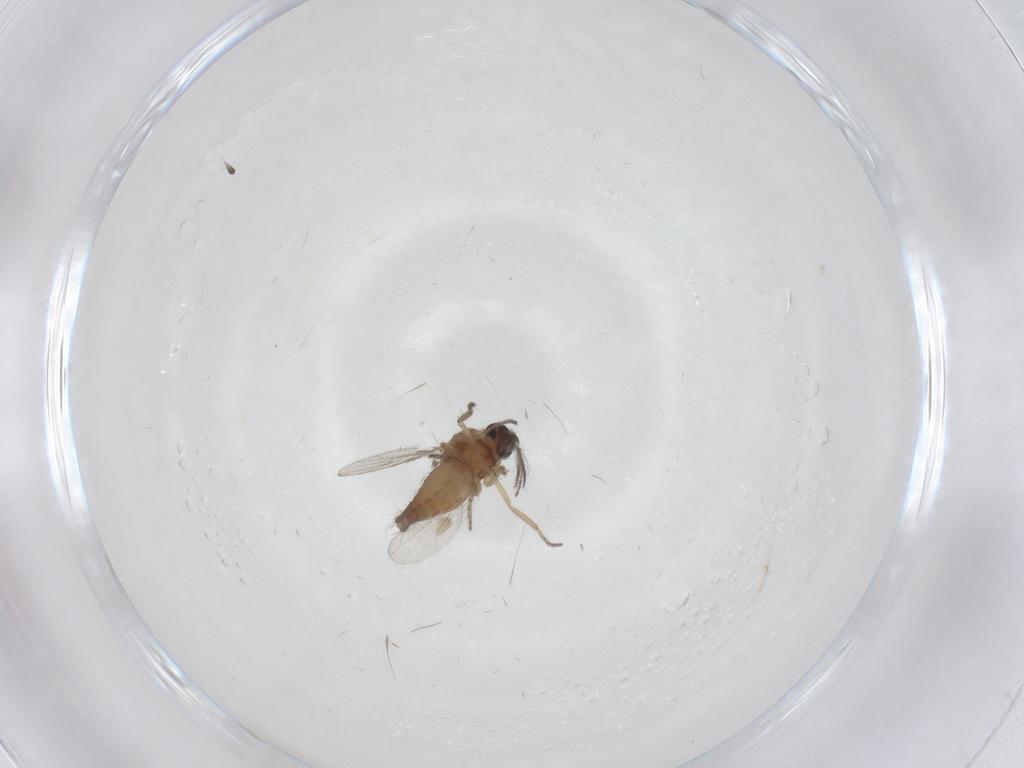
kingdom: Animalia
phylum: Arthropoda
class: Insecta
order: Diptera
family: Ceratopogonidae
